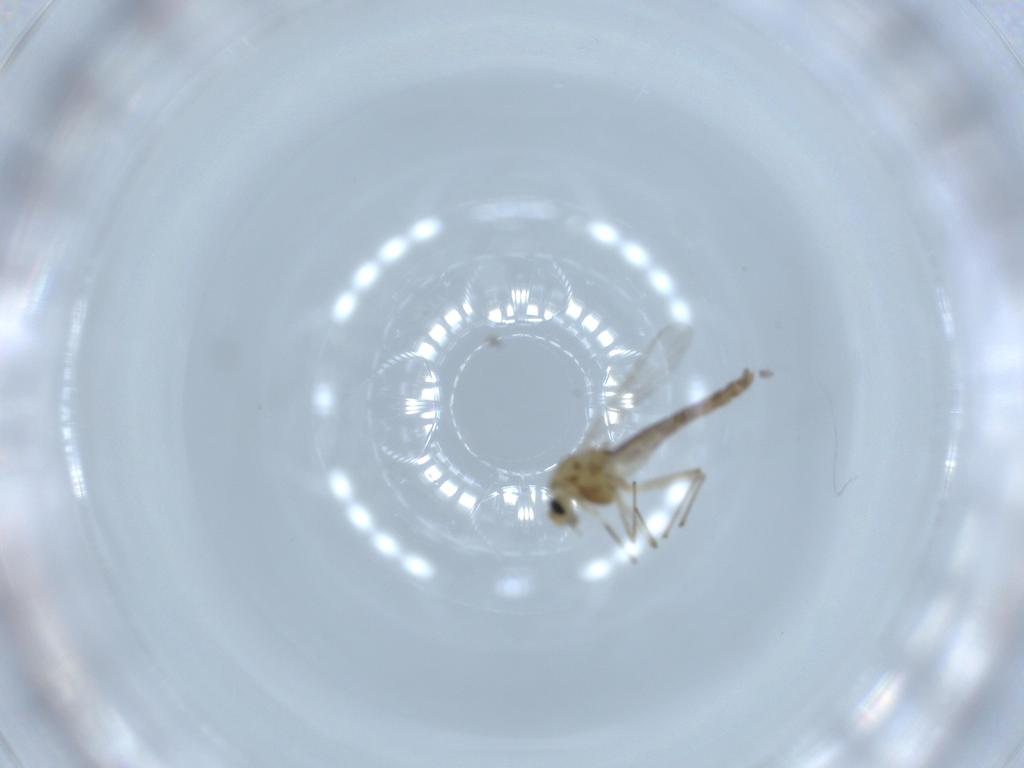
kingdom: Animalia
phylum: Arthropoda
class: Insecta
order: Diptera
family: Chironomidae
